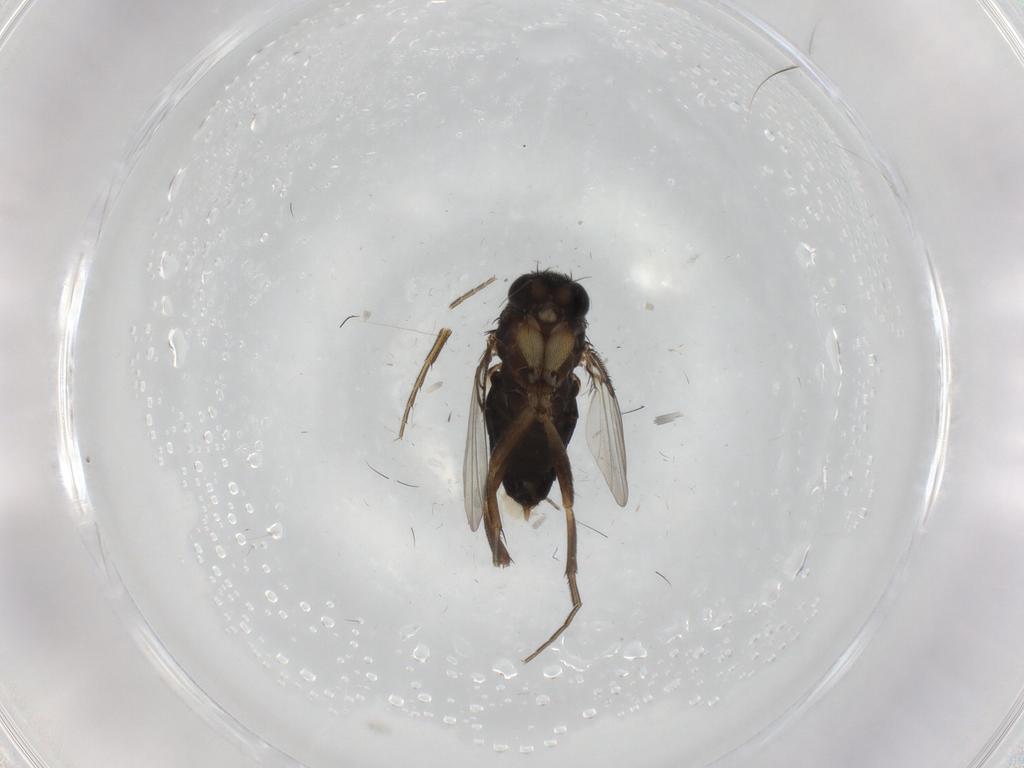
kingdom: Animalia
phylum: Arthropoda
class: Insecta
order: Diptera
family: Phoridae
